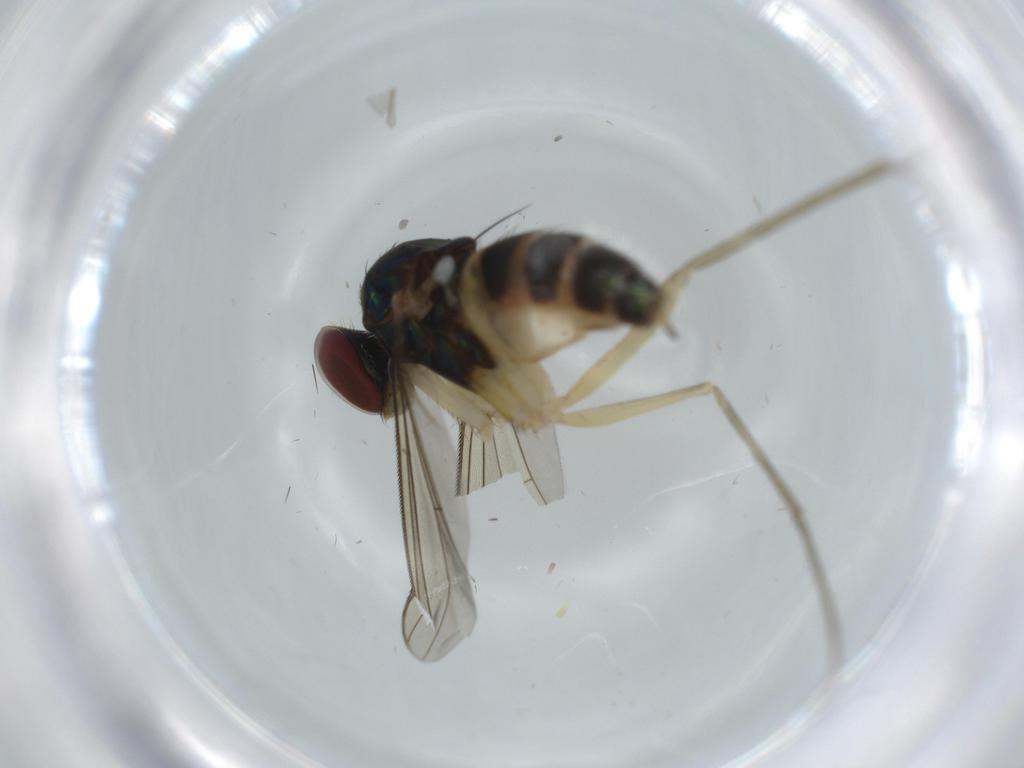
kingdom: Animalia
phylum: Arthropoda
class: Insecta
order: Diptera
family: Dolichopodidae
